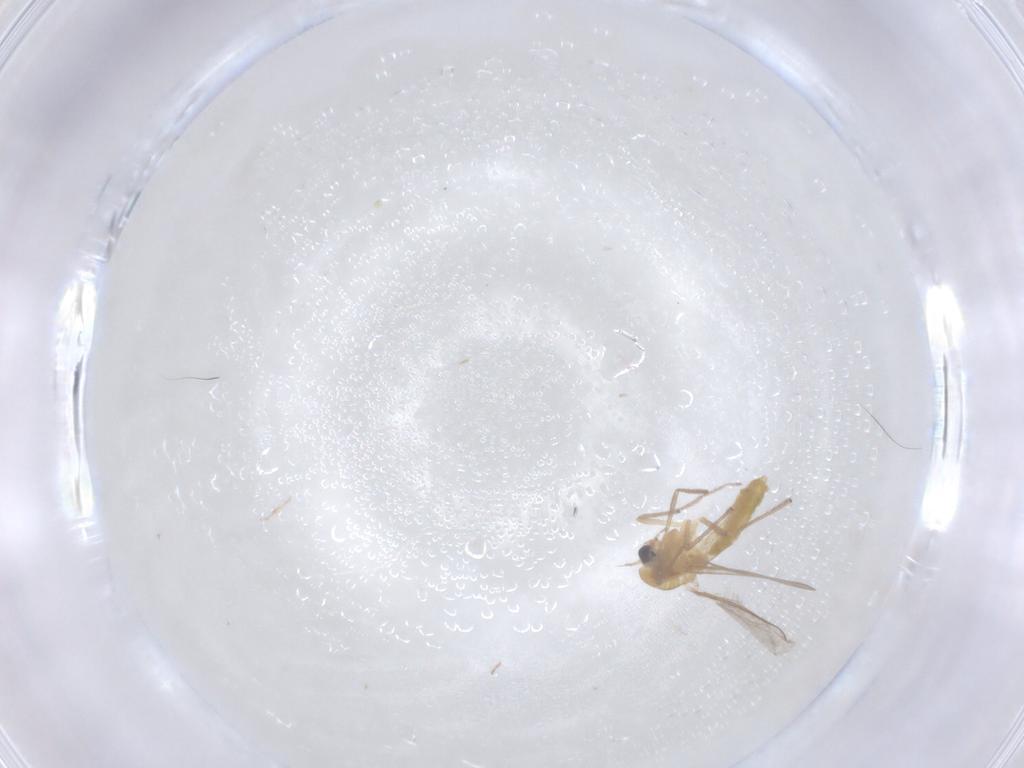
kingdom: Animalia
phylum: Arthropoda
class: Insecta
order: Diptera
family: Chironomidae
